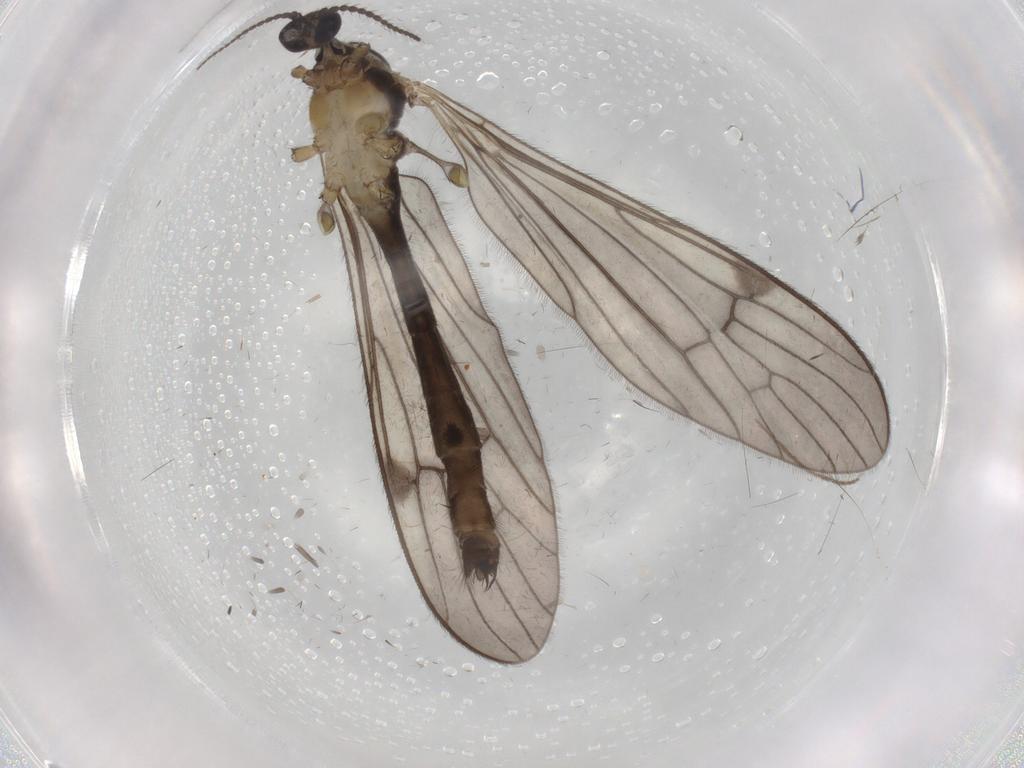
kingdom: Animalia
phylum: Arthropoda
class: Insecta
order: Diptera
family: Limoniidae
